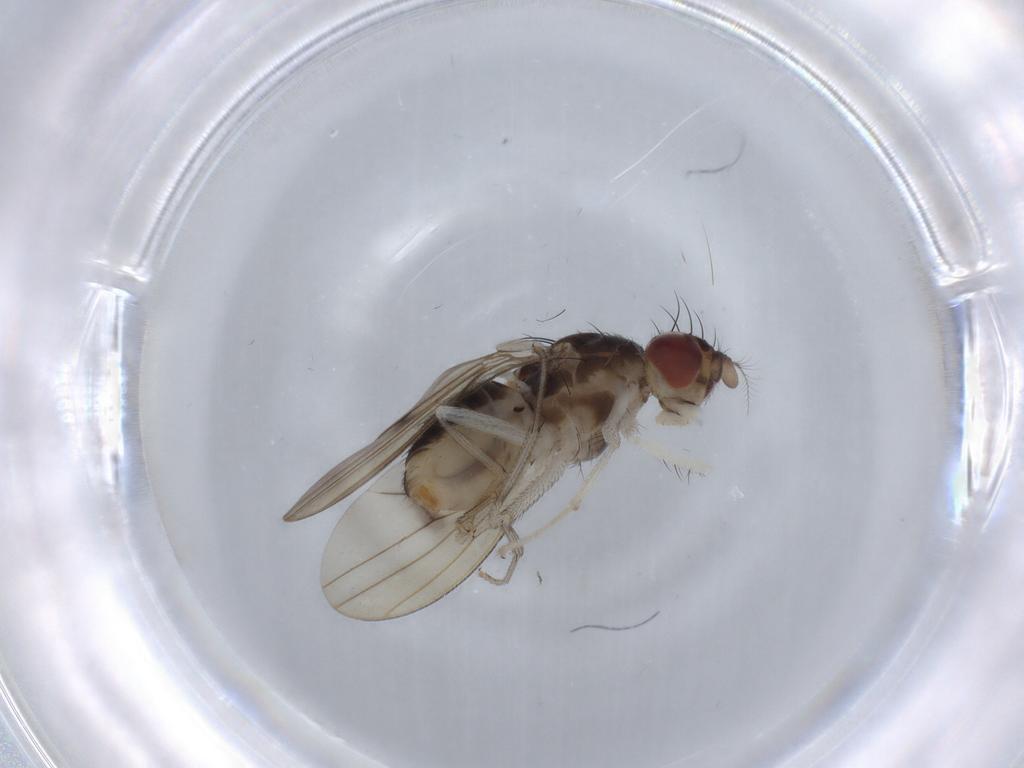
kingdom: Animalia
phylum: Arthropoda
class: Insecta
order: Diptera
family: Lauxaniidae
